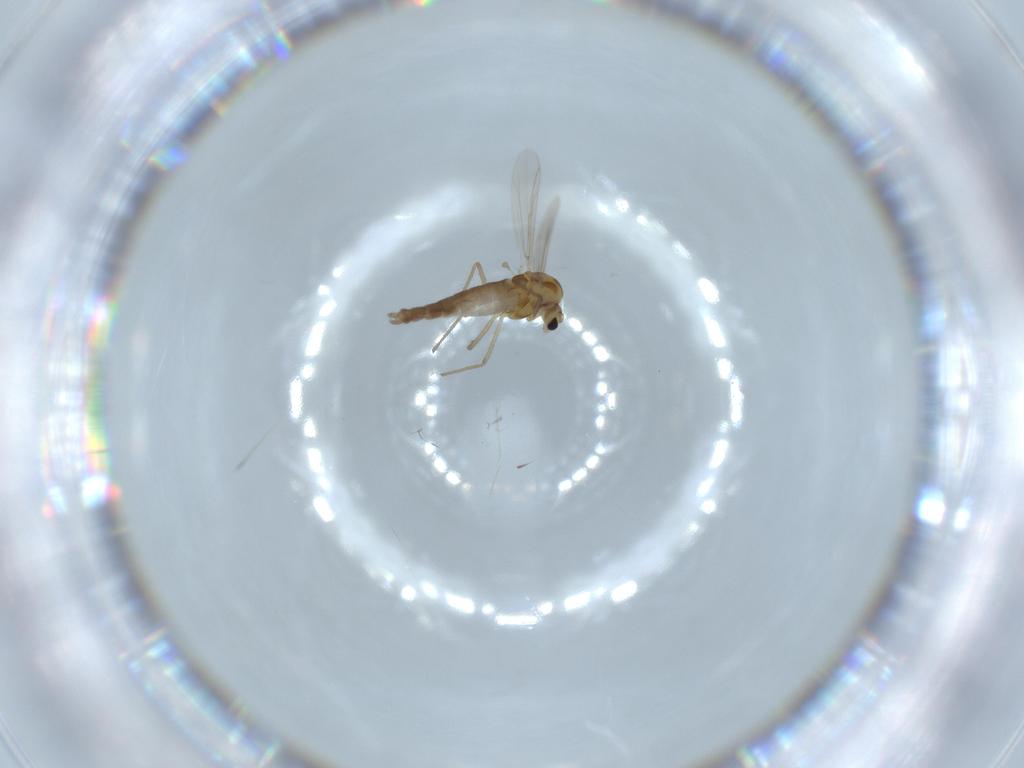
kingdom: Animalia
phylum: Arthropoda
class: Insecta
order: Diptera
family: Chironomidae
